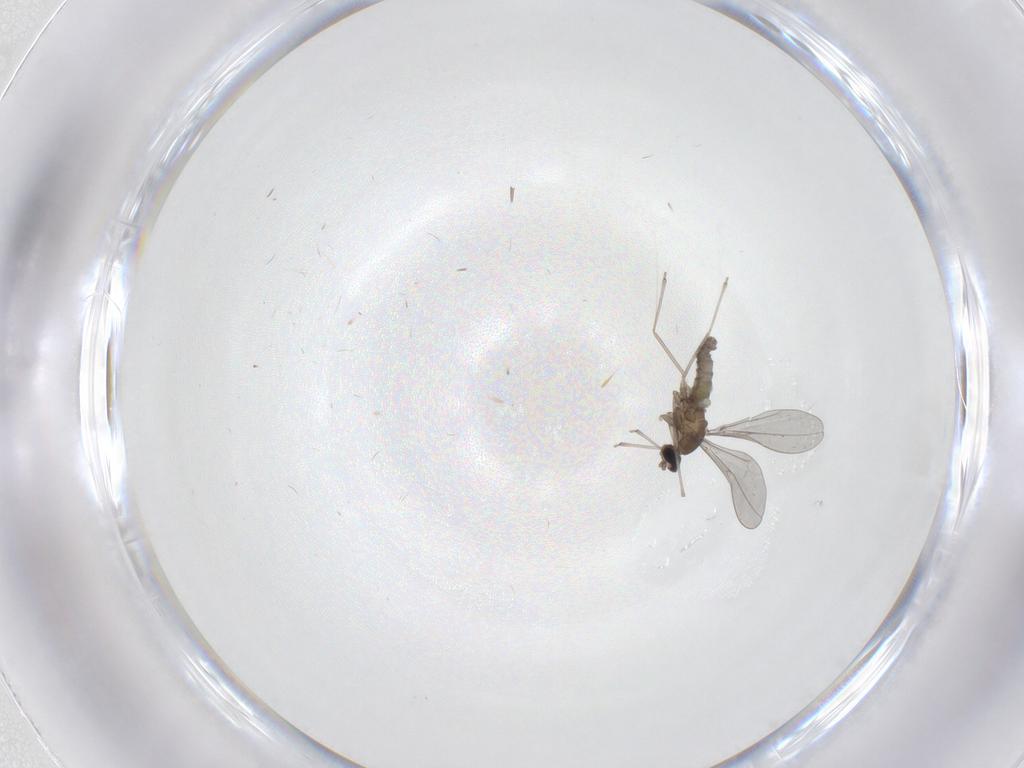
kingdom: Animalia
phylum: Arthropoda
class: Insecta
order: Diptera
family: Cecidomyiidae
